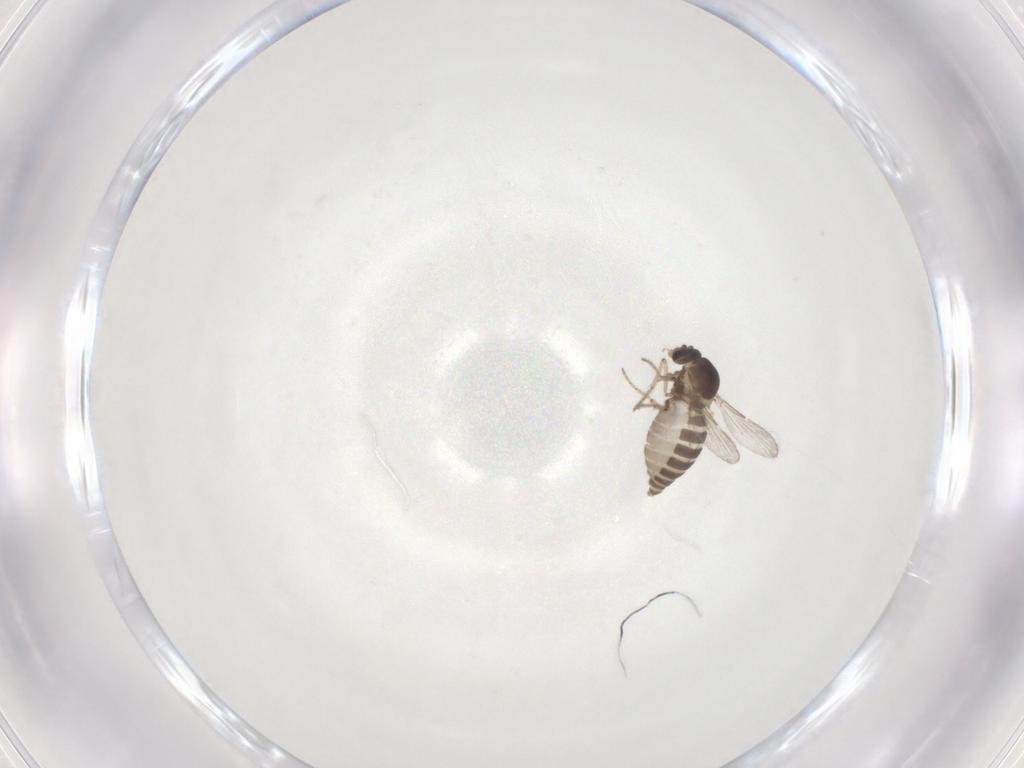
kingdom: Animalia
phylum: Arthropoda
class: Insecta
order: Diptera
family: Ceratopogonidae
